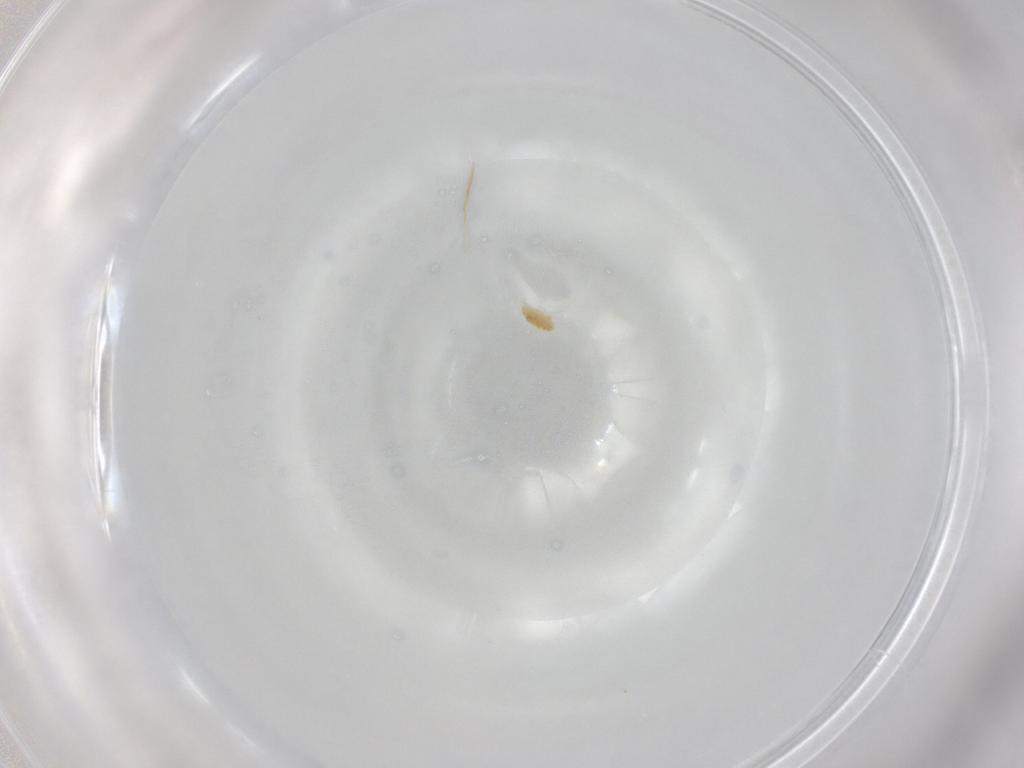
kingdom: Animalia
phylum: Arthropoda
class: Arachnida
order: Trombidiformes
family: Eupodidae
